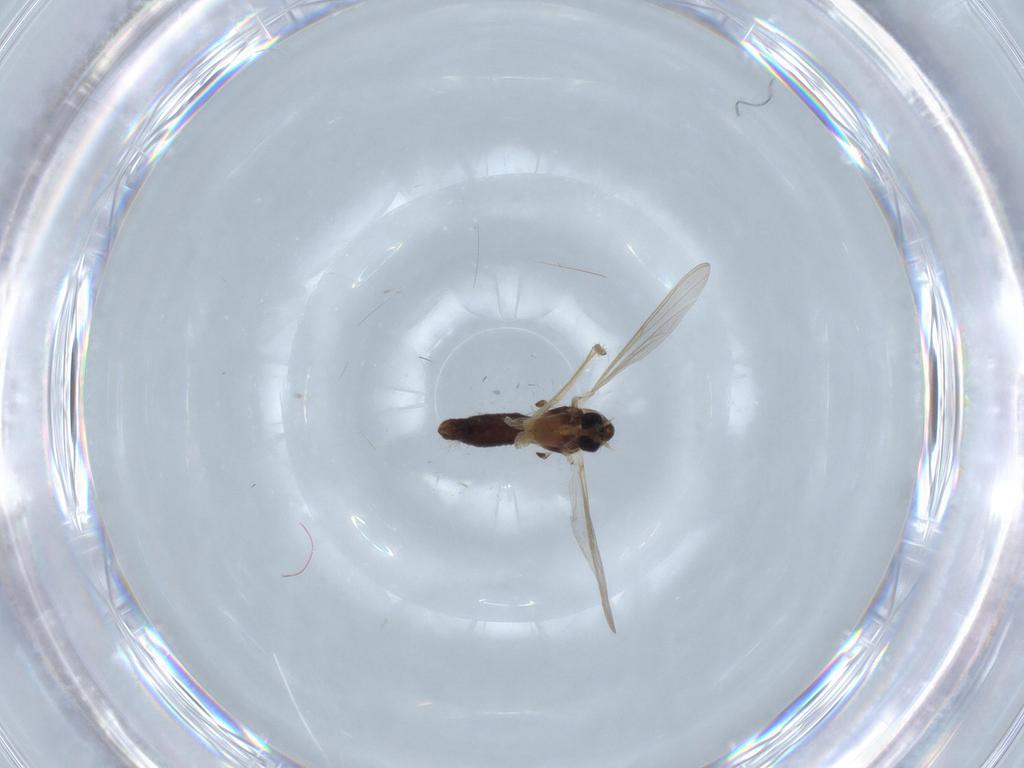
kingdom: Animalia
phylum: Arthropoda
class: Insecta
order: Diptera
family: Chironomidae
